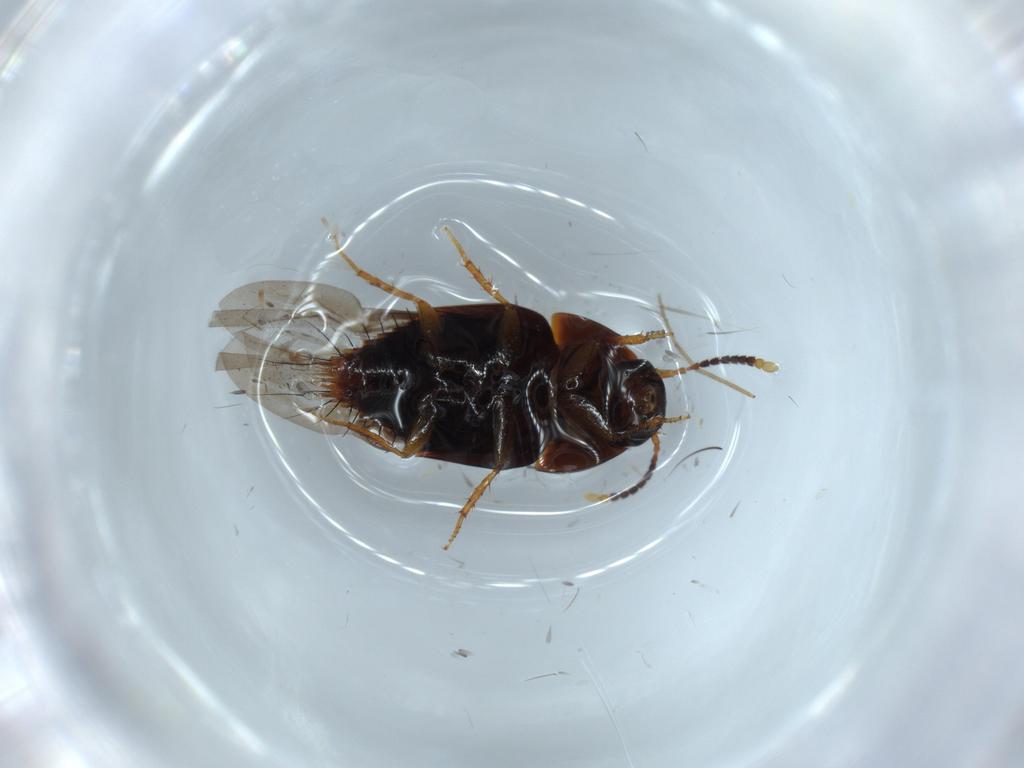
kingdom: Animalia
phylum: Arthropoda
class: Insecta
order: Coleoptera
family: Staphylinidae
